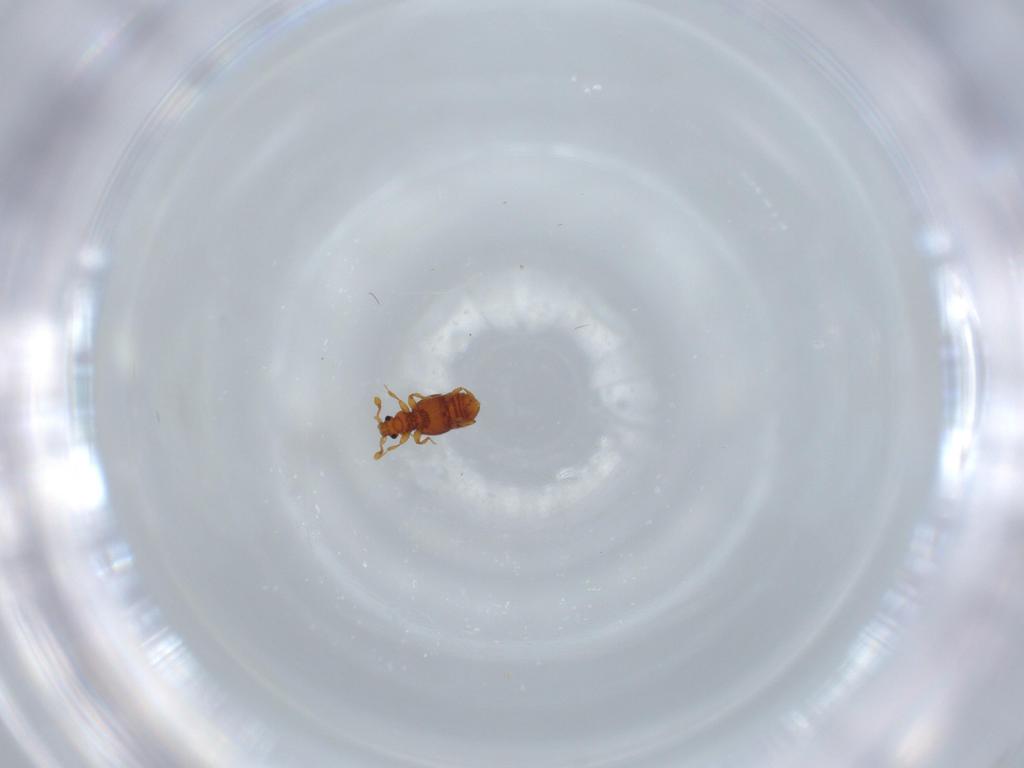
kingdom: Animalia
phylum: Arthropoda
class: Insecta
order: Coleoptera
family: Staphylinidae
